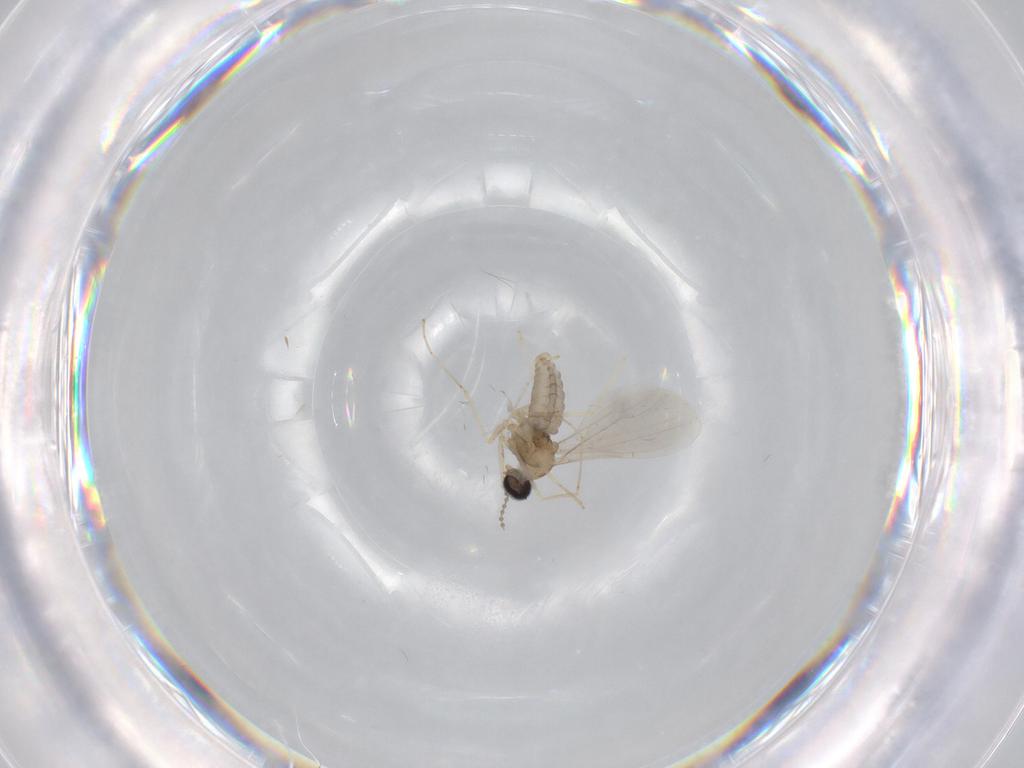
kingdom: Animalia
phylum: Arthropoda
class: Insecta
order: Diptera
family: Cecidomyiidae
